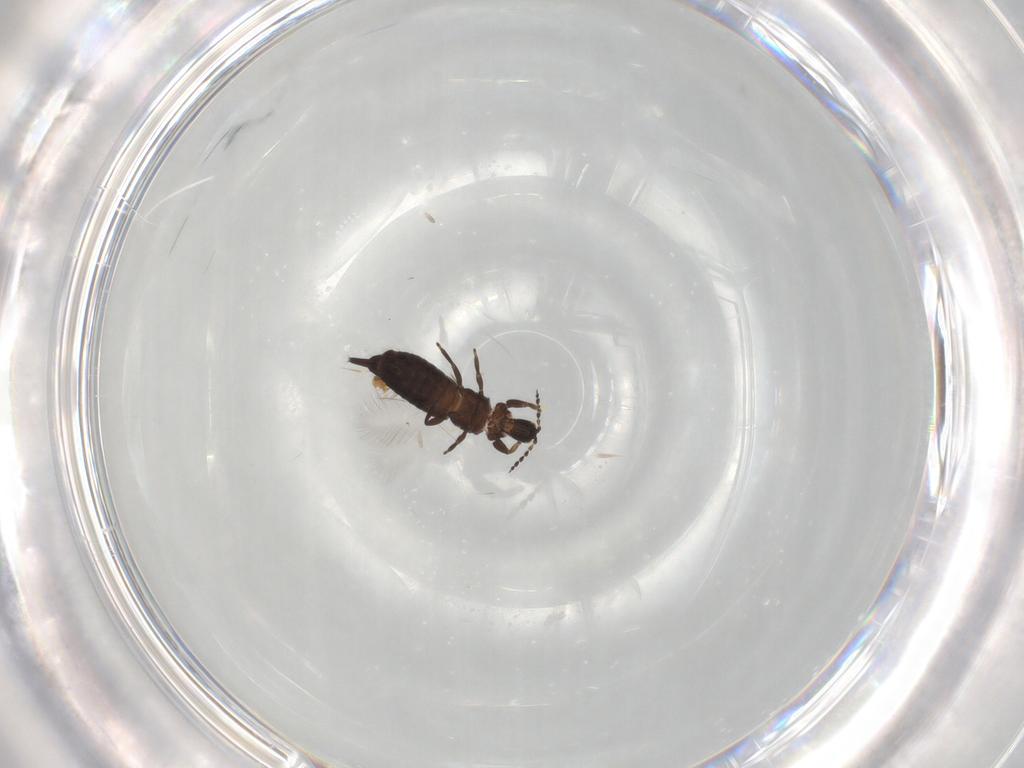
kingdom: Animalia
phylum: Arthropoda
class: Insecta
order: Thysanoptera
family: Phlaeothripidae
